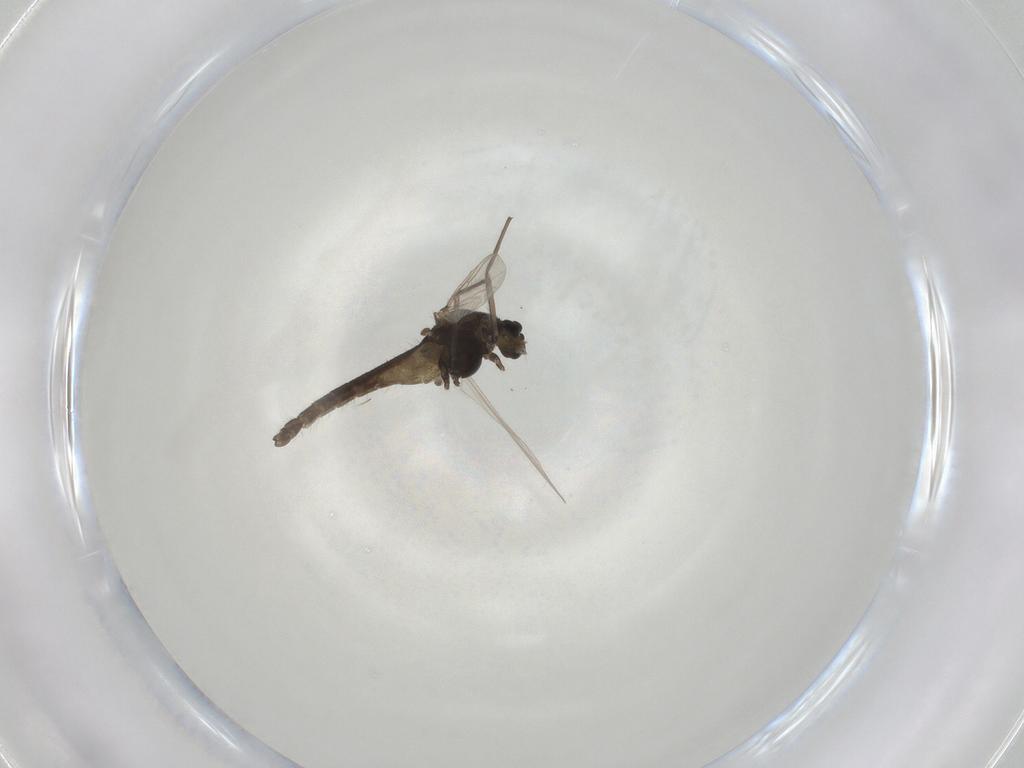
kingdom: Animalia
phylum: Arthropoda
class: Insecta
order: Diptera
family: Chironomidae
